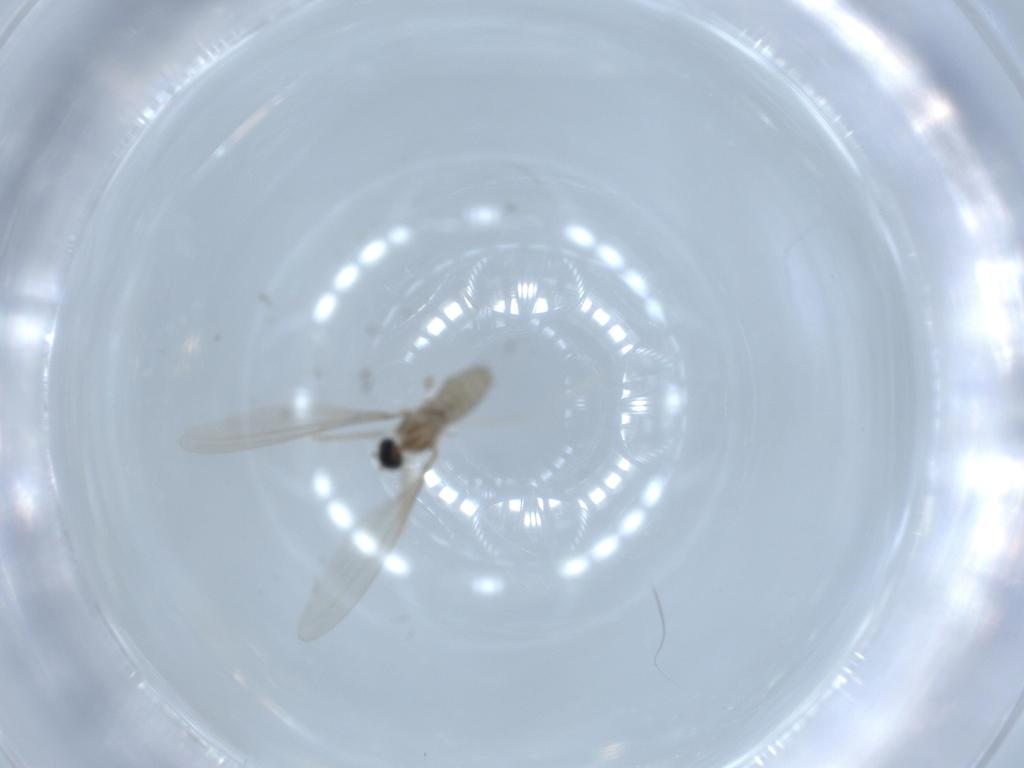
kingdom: Animalia
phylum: Arthropoda
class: Insecta
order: Diptera
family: Cecidomyiidae
